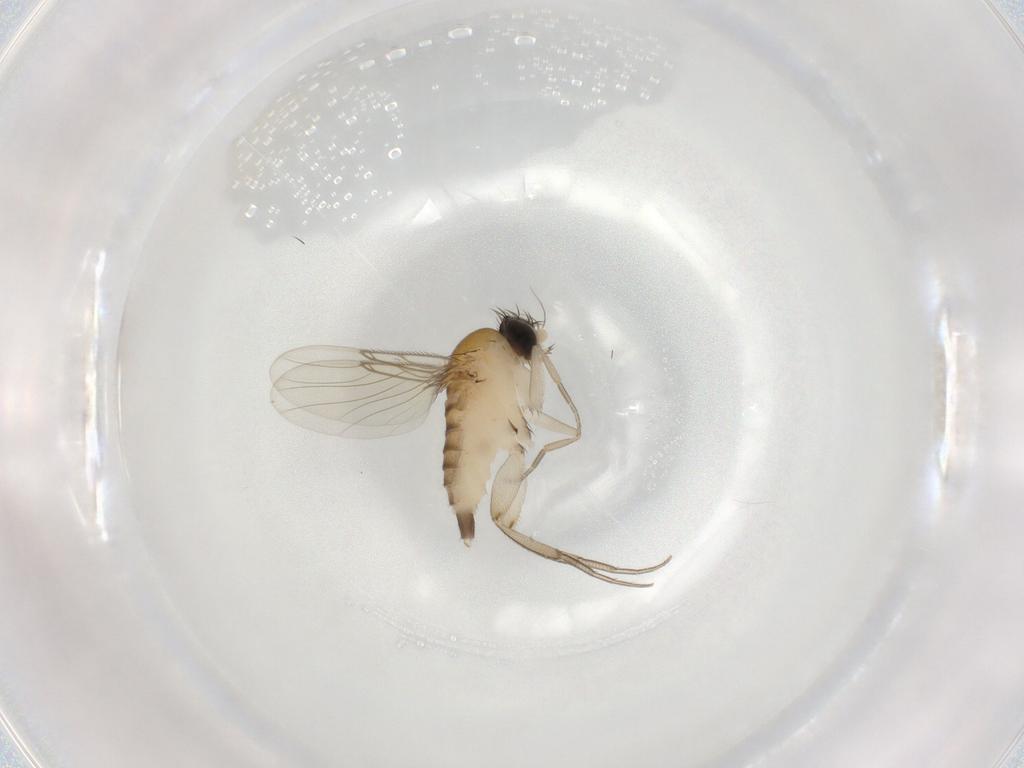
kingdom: Animalia
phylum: Arthropoda
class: Insecta
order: Diptera
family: Phoridae
